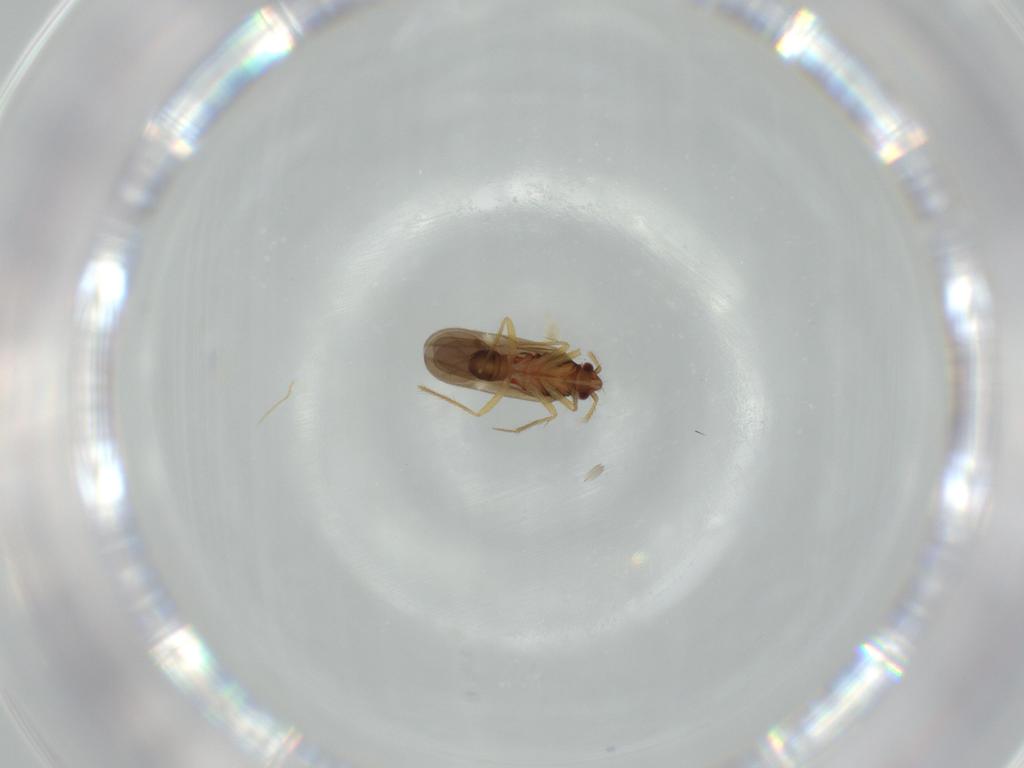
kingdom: Animalia
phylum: Arthropoda
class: Insecta
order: Hemiptera
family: Ceratocombidae
